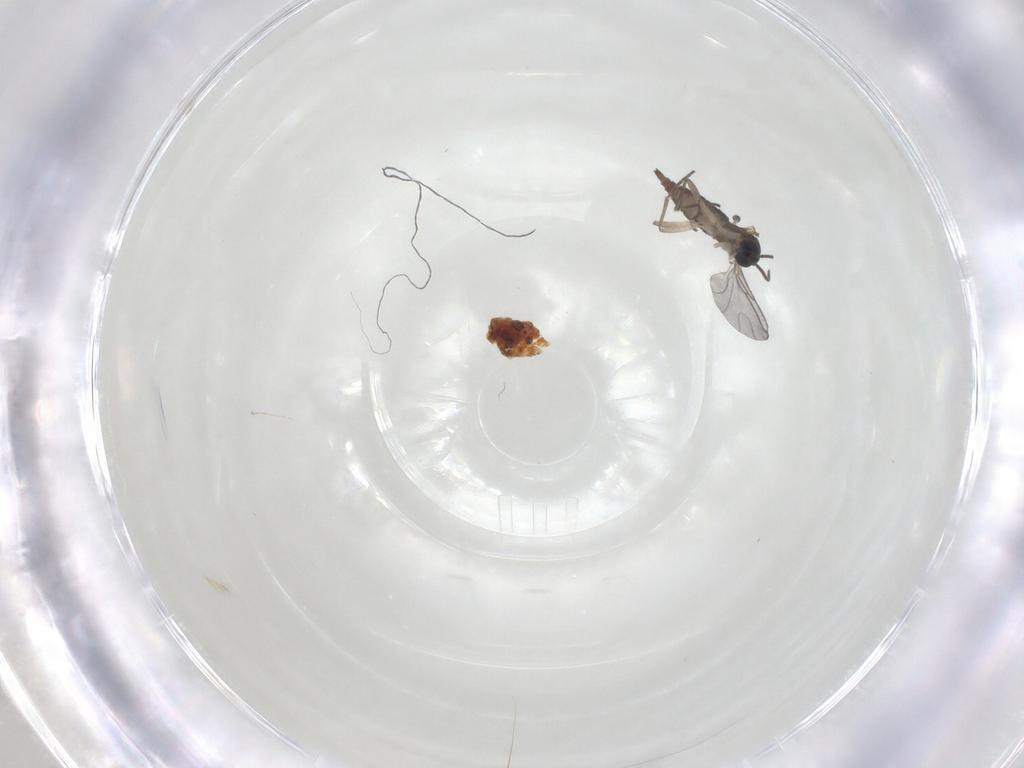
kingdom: Animalia
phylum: Arthropoda
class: Insecta
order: Diptera
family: Sciaridae
